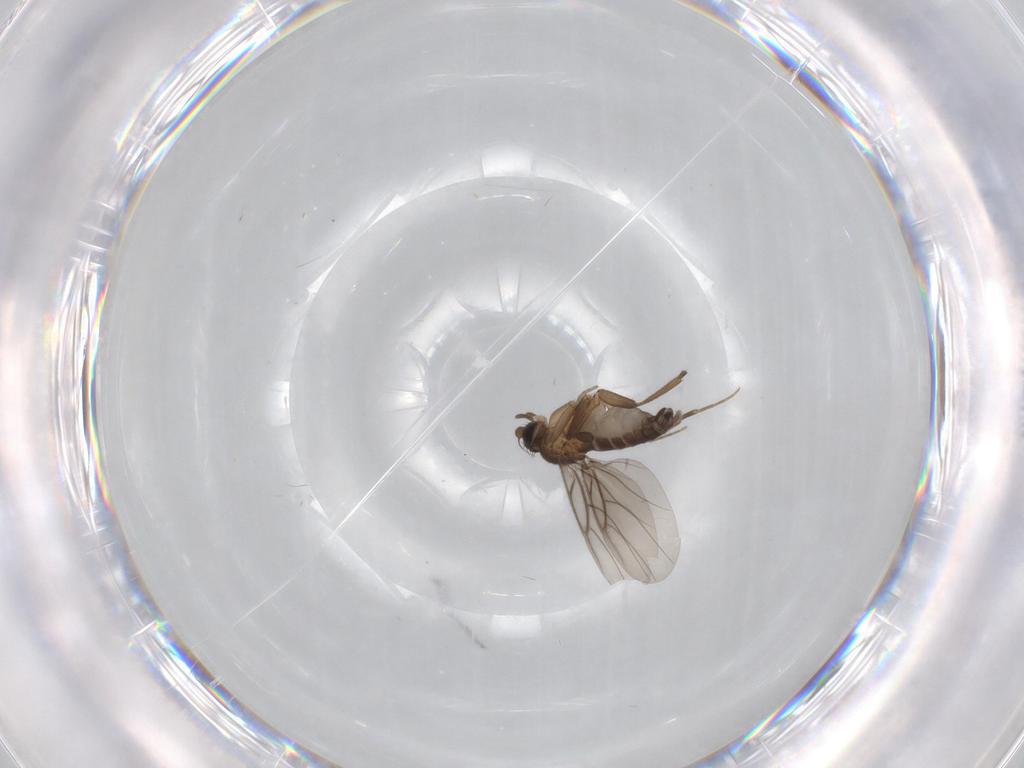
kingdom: Animalia
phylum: Arthropoda
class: Insecta
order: Diptera
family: Phoridae
